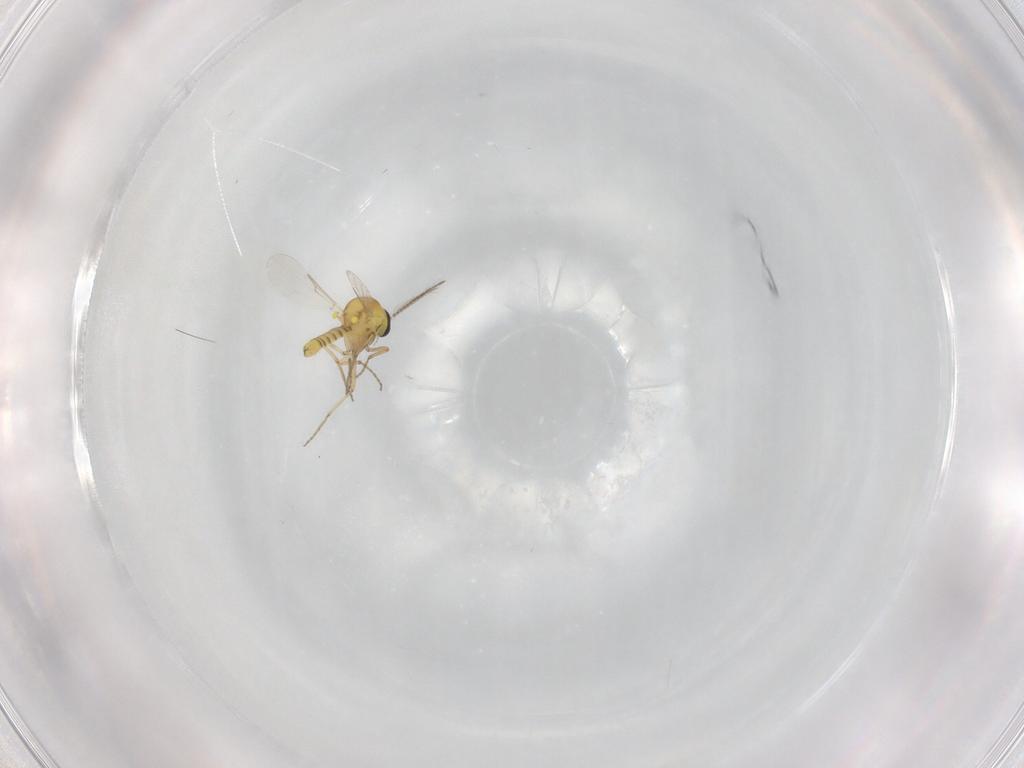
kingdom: Animalia
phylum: Arthropoda
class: Insecta
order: Diptera
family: Ceratopogonidae
